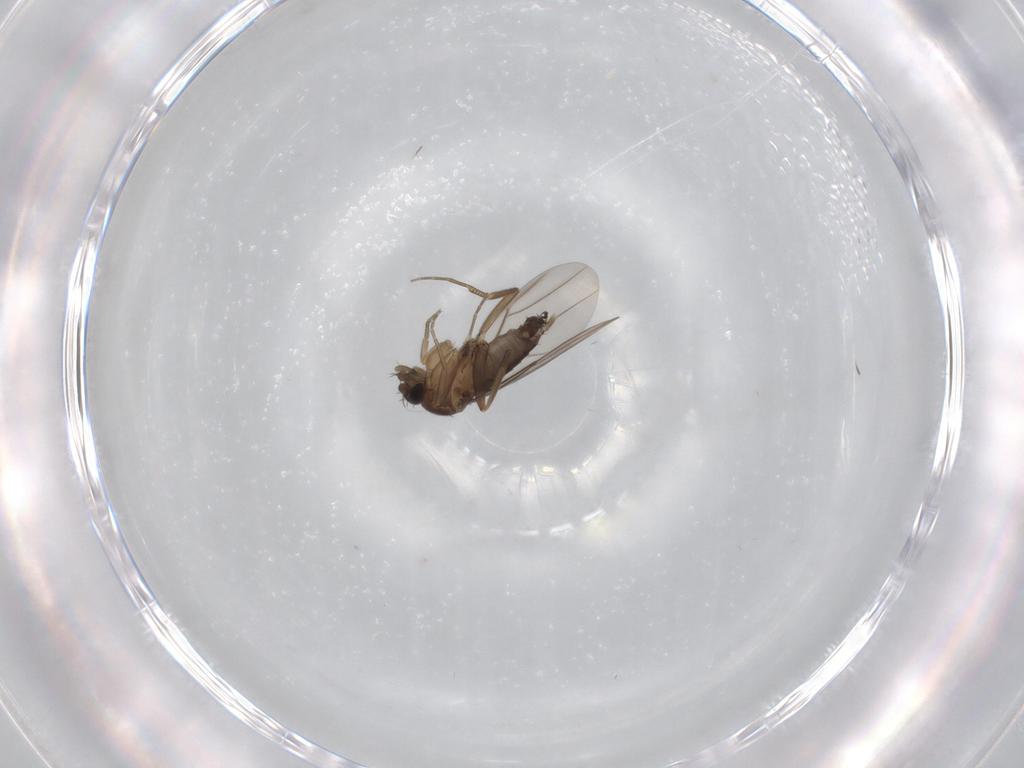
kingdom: Animalia
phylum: Arthropoda
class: Insecta
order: Diptera
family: Phoridae
